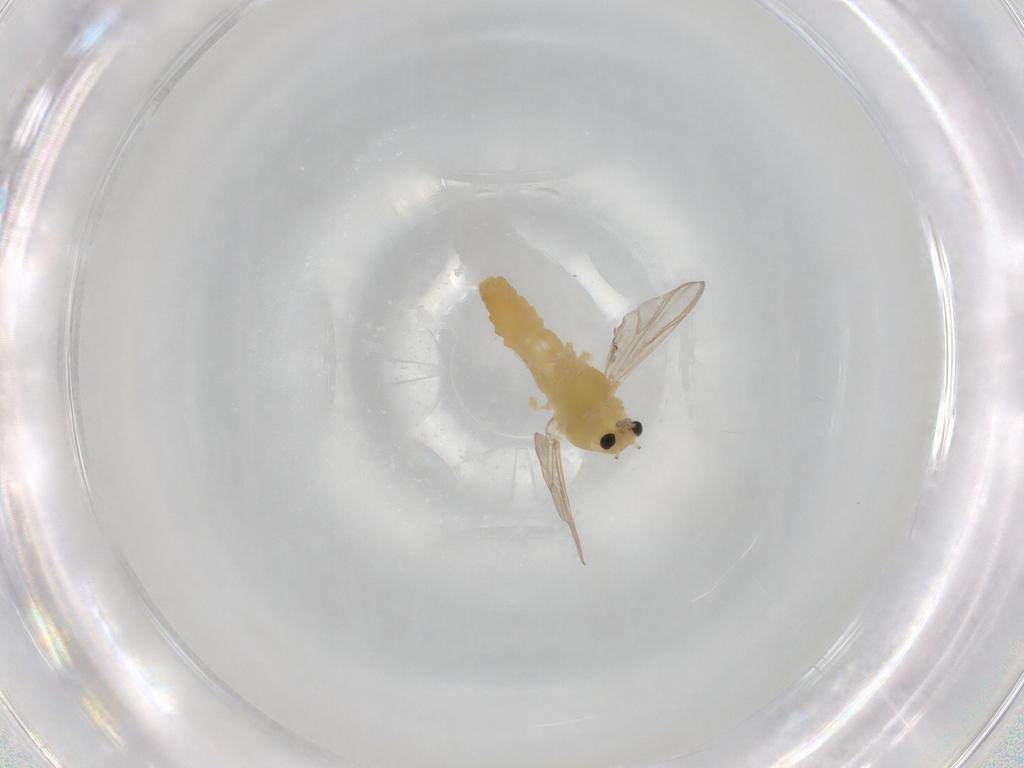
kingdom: Animalia
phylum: Arthropoda
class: Insecta
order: Diptera
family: Chironomidae
